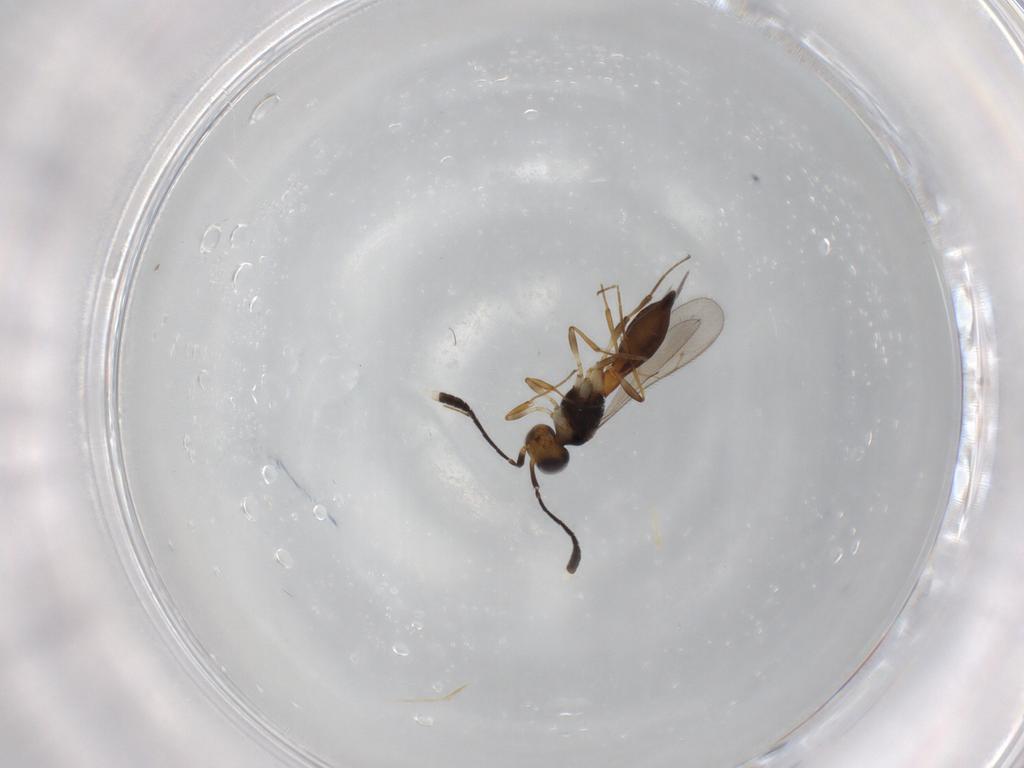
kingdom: Animalia
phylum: Arthropoda
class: Insecta
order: Hymenoptera
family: Scelionidae
